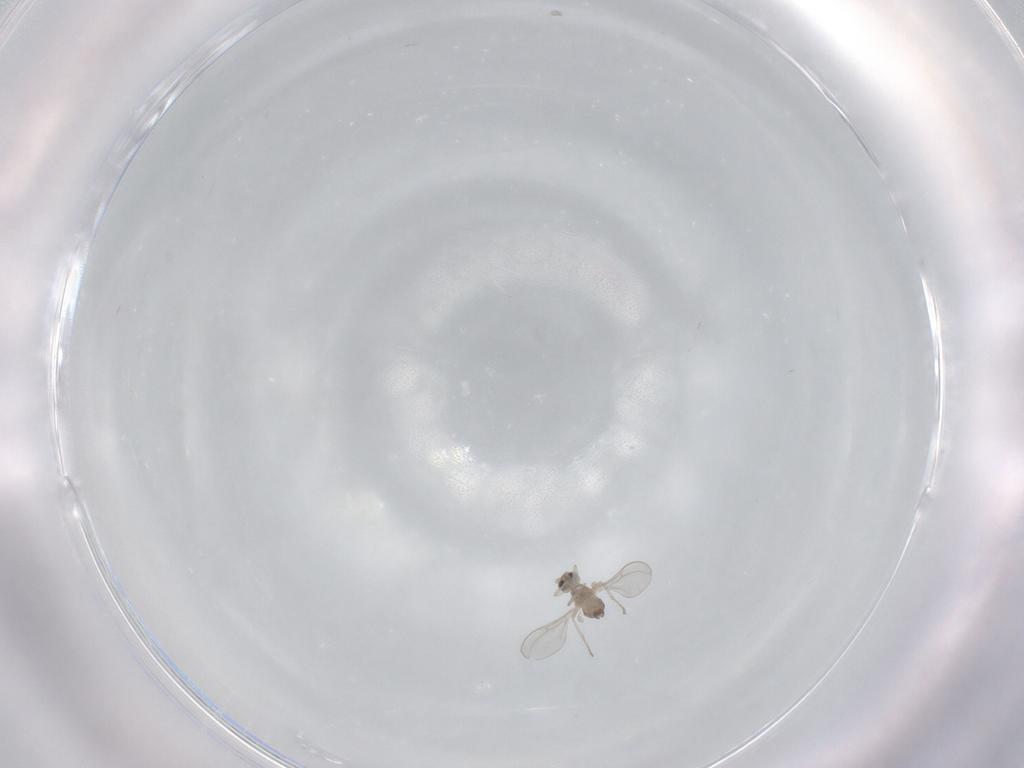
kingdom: Animalia
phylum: Arthropoda
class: Insecta
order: Diptera
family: Cecidomyiidae
